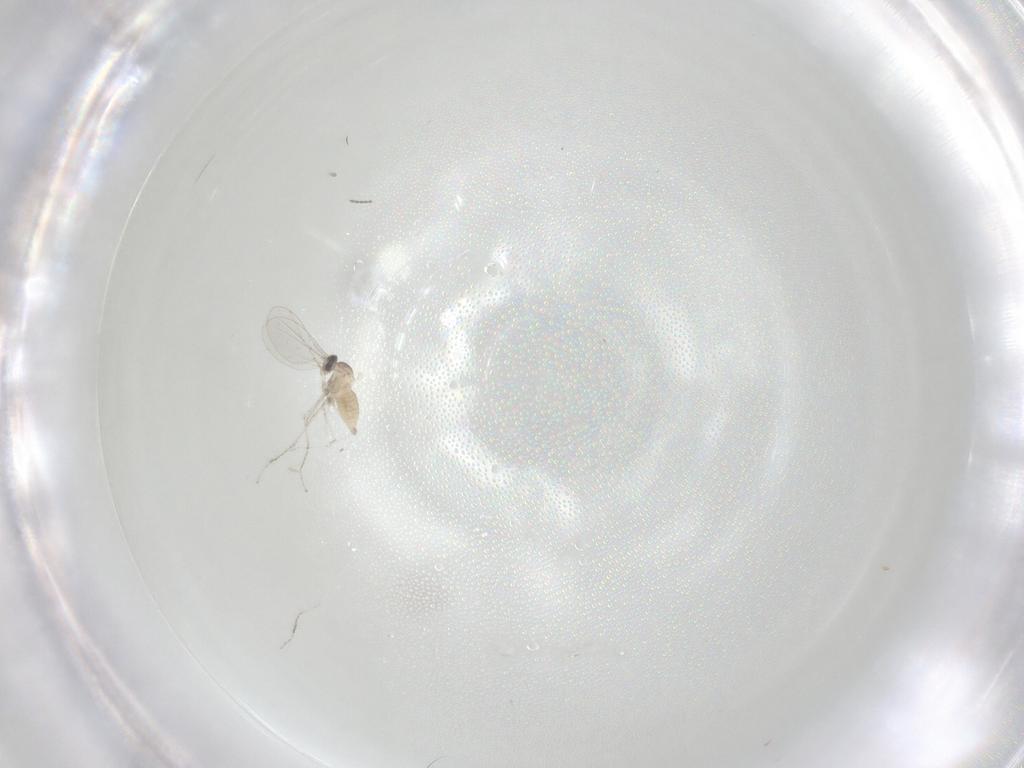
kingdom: Animalia
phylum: Arthropoda
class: Insecta
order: Diptera
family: Cecidomyiidae
